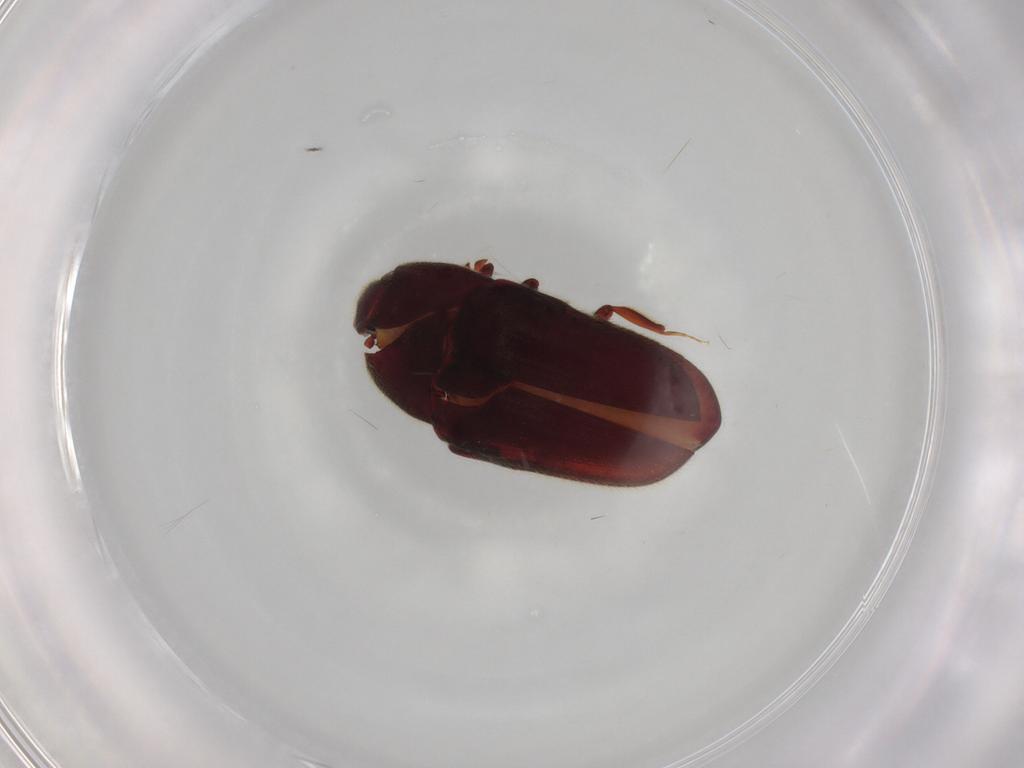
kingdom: Animalia
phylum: Arthropoda
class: Insecta
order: Coleoptera
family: Throscidae
